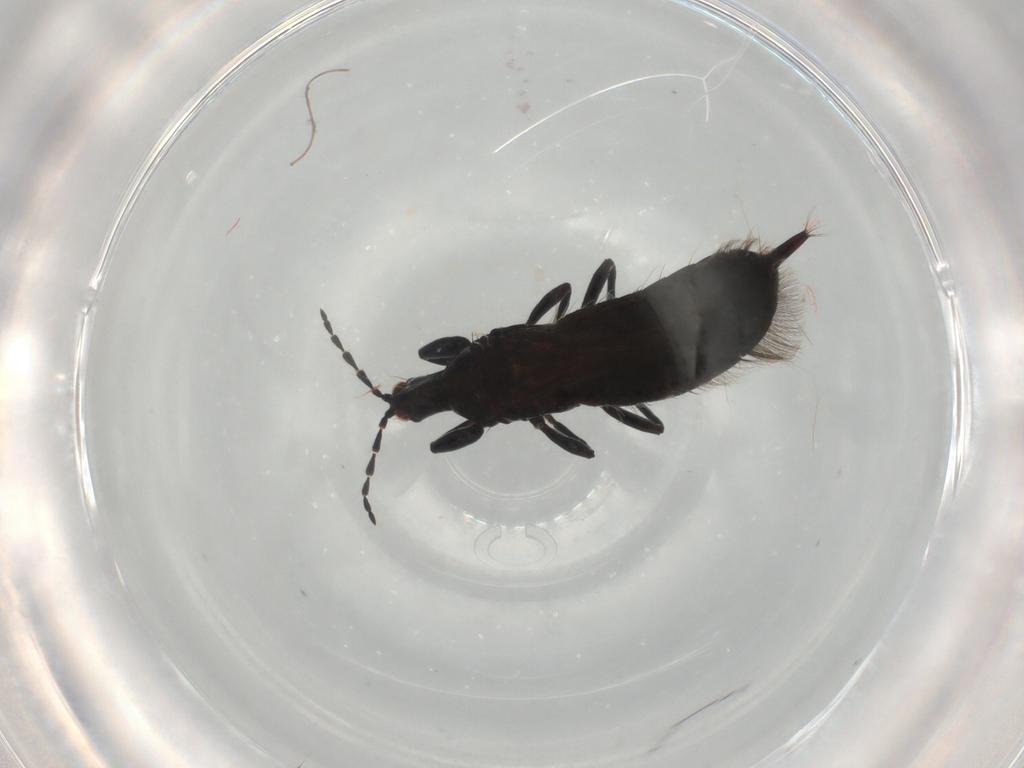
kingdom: Animalia
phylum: Arthropoda
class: Insecta
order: Thysanoptera
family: Phlaeothripidae
